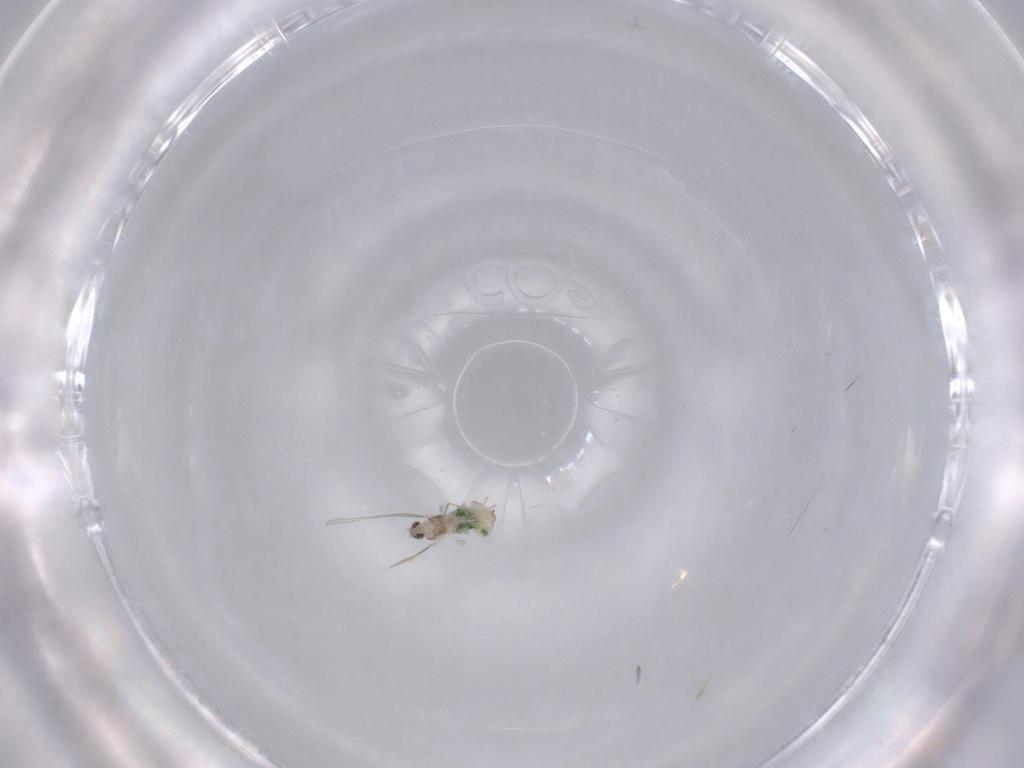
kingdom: Animalia
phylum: Arthropoda
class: Insecta
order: Diptera
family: Cecidomyiidae
